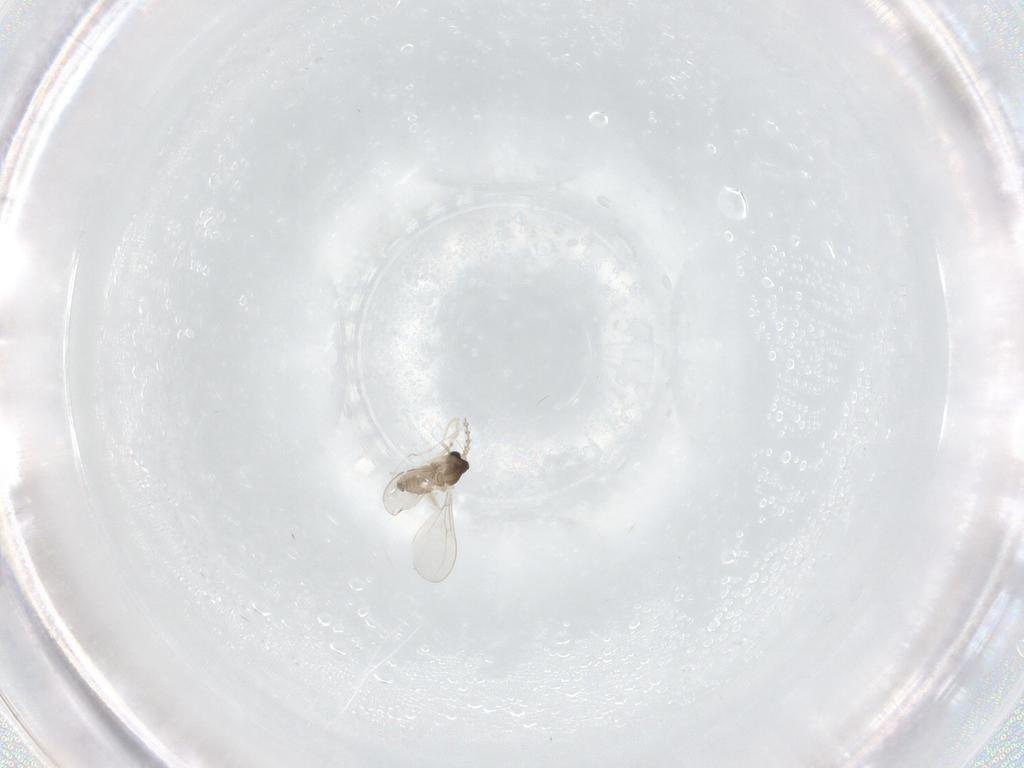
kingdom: Animalia
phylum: Arthropoda
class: Insecta
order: Diptera
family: Cecidomyiidae
